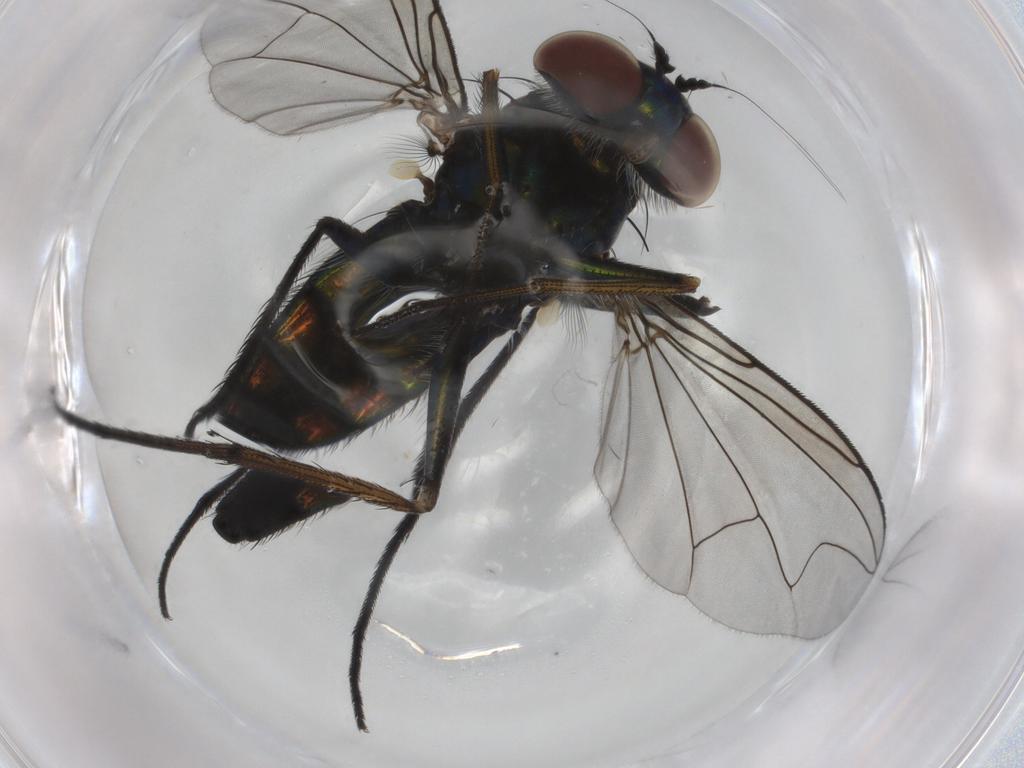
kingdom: Animalia
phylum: Arthropoda
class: Insecta
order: Diptera
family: Dolichopodidae
